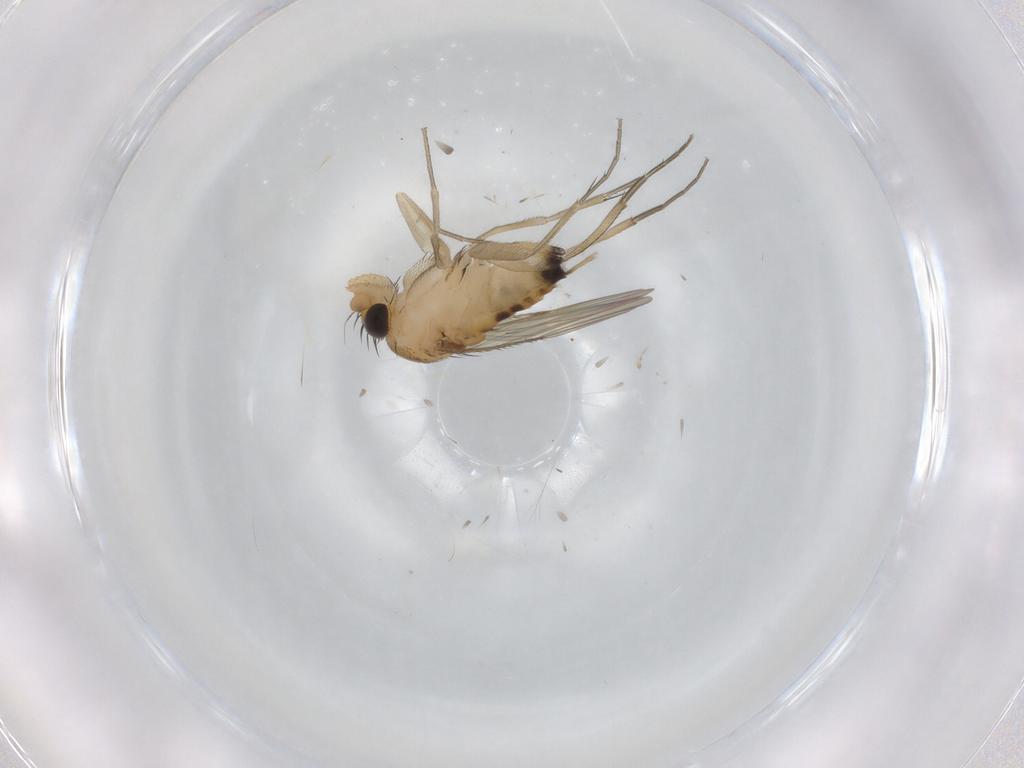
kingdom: Animalia
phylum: Arthropoda
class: Insecta
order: Diptera
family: Phoridae
